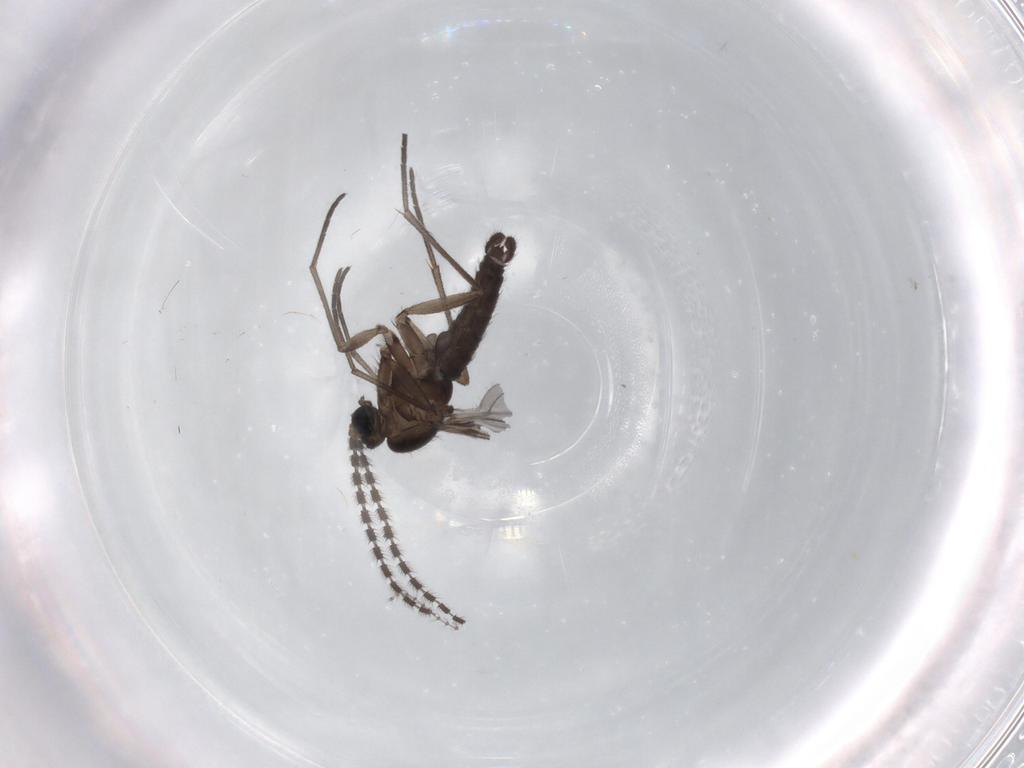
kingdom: Animalia
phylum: Arthropoda
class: Insecta
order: Diptera
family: Sciaridae
